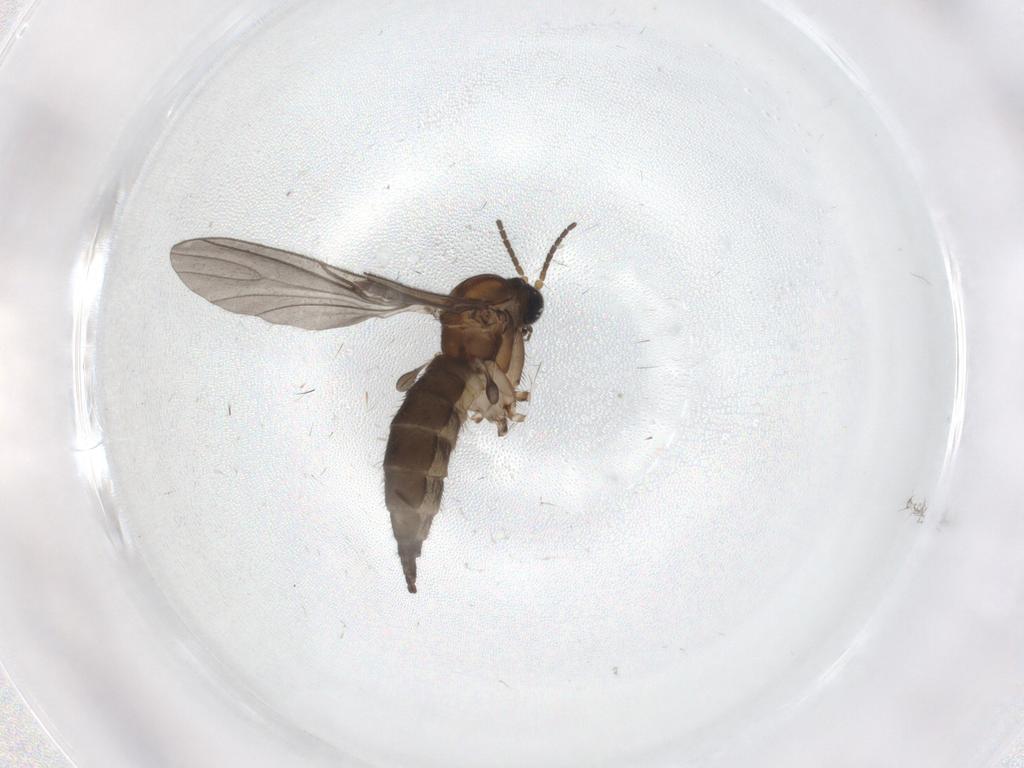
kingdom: Animalia
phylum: Arthropoda
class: Insecta
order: Diptera
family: Sciaridae
